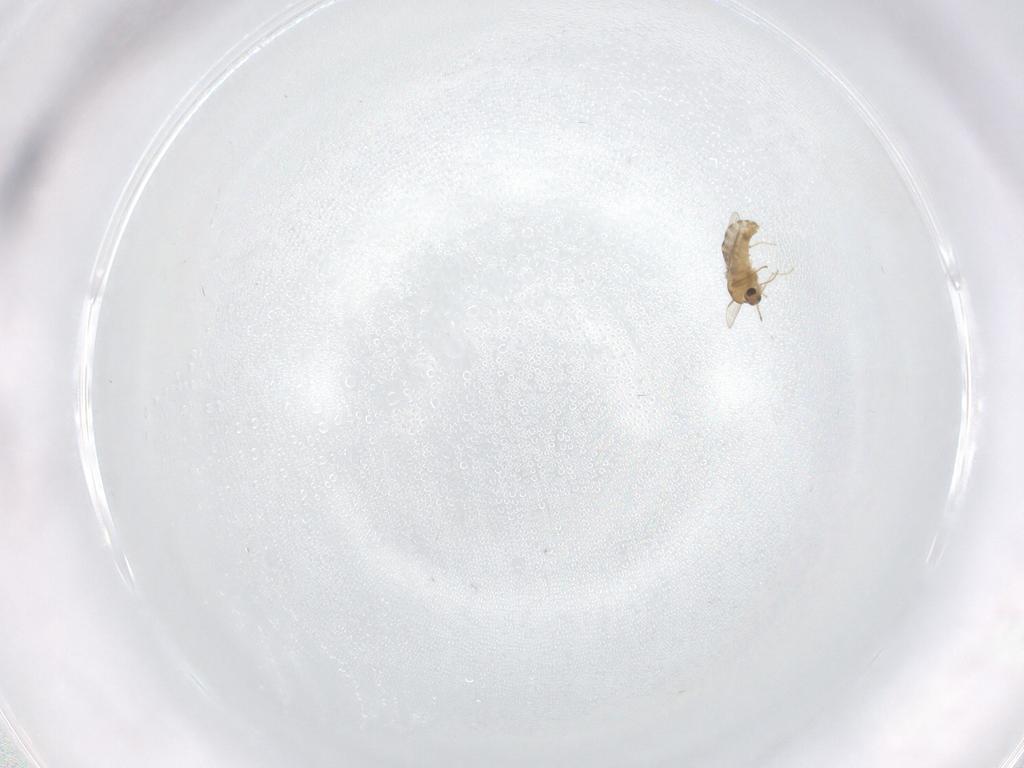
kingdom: Animalia
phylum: Arthropoda
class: Insecta
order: Diptera
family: Chironomidae
